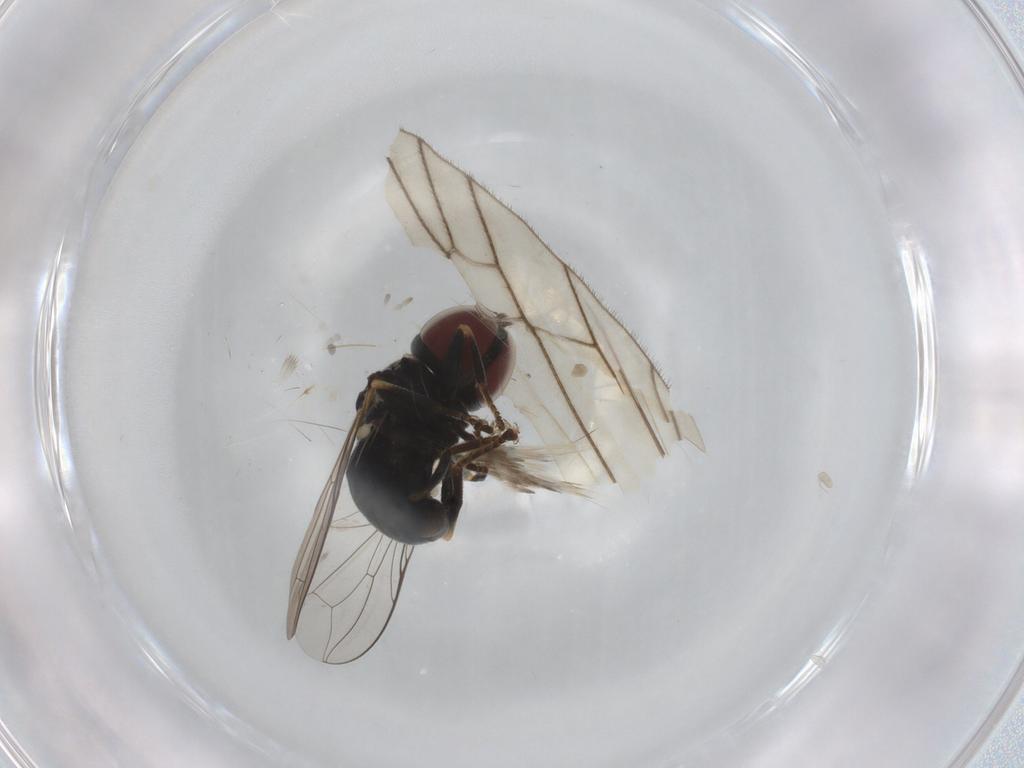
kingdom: Animalia
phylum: Arthropoda
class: Insecta
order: Diptera
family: Pipunculidae
